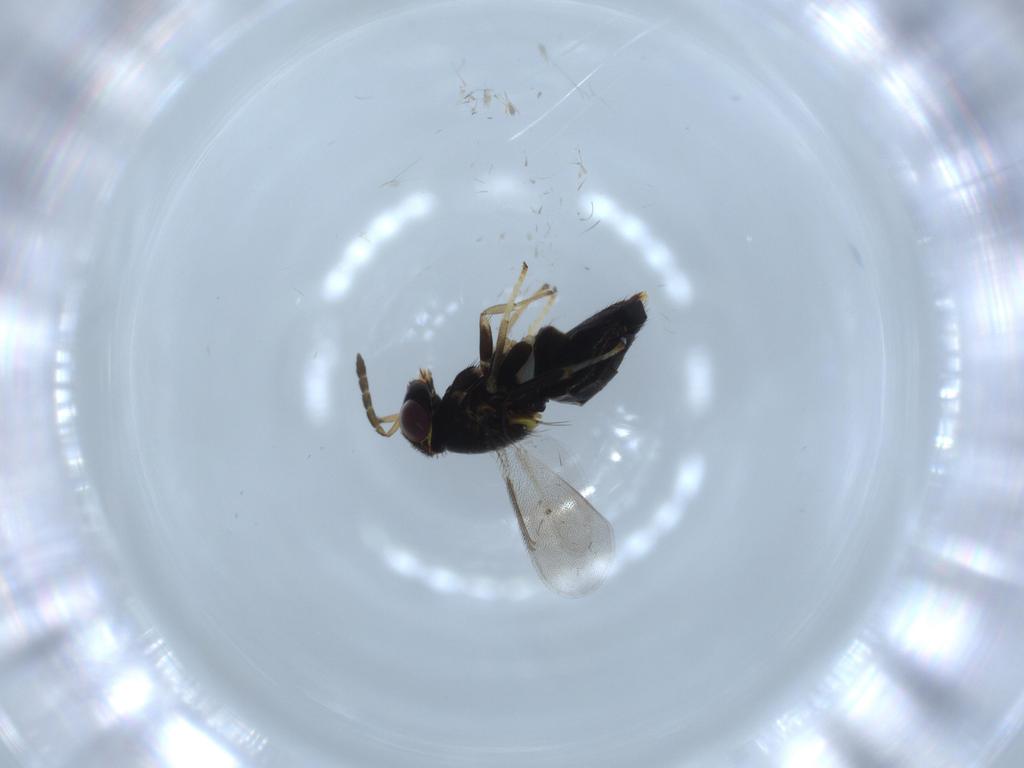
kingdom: Animalia
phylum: Arthropoda
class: Insecta
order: Hymenoptera
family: Aphelinidae
